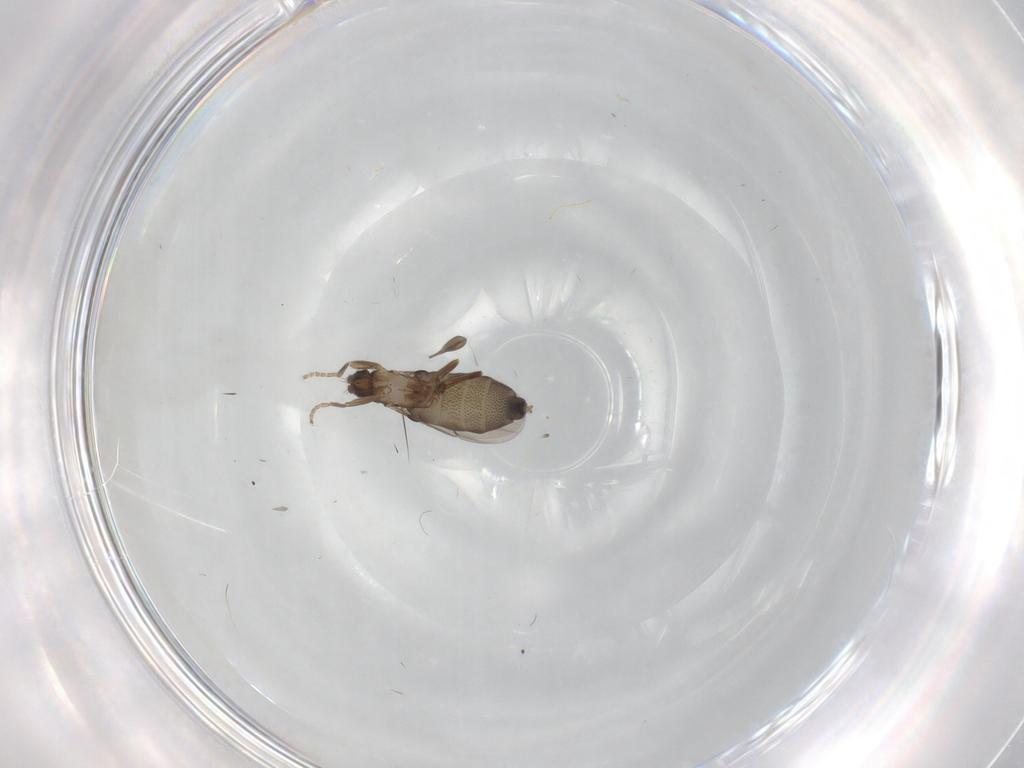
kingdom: Animalia
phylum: Arthropoda
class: Insecta
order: Diptera
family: Phoridae
